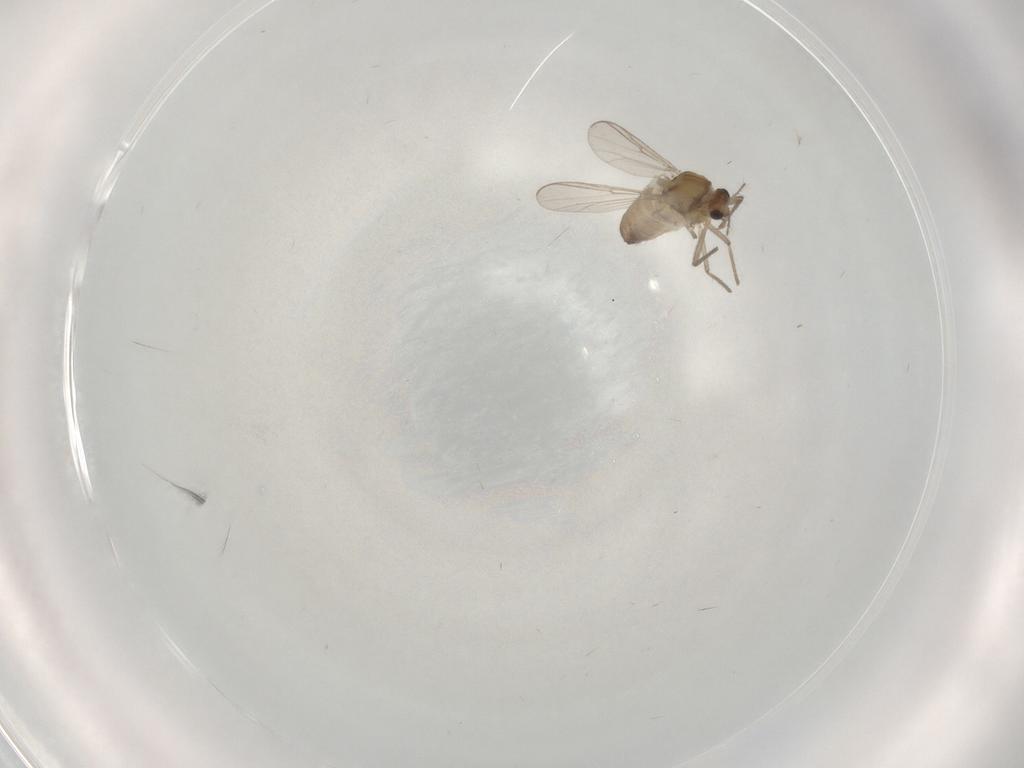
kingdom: Animalia
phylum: Arthropoda
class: Insecta
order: Diptera
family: Chironomidae
